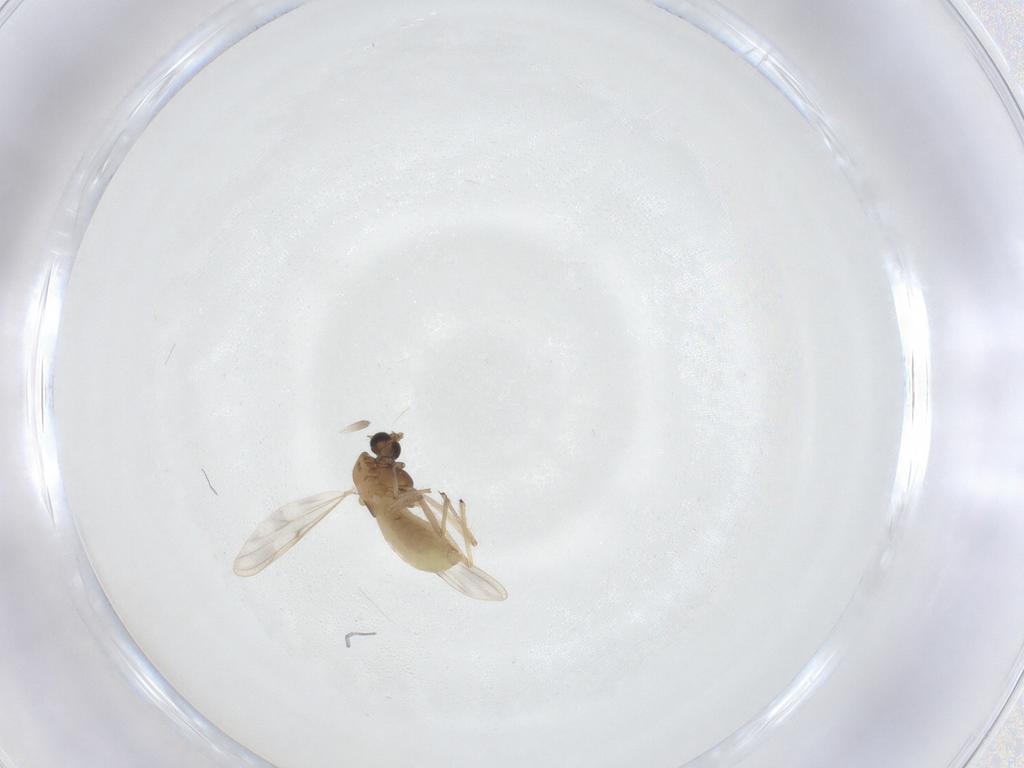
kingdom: Animalia
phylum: Arthropoda
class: Insecta
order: Diptera
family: Chironomidae
